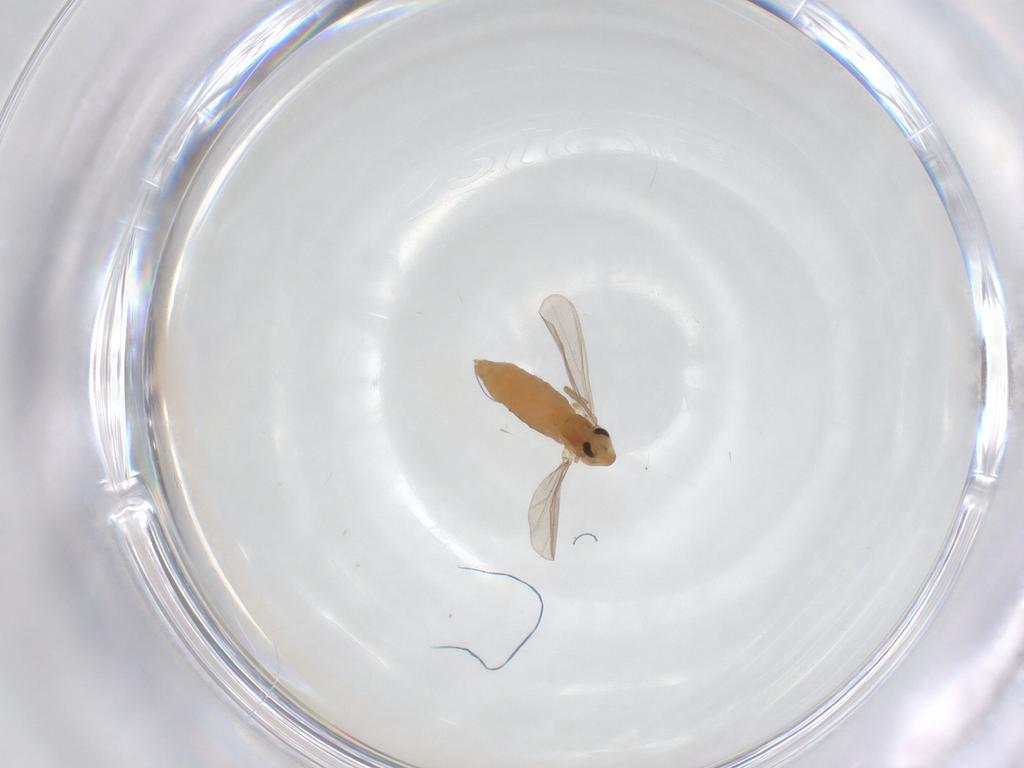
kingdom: Animalia
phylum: Arthropoda
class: Insecta
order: Diptera
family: Chironomidae
